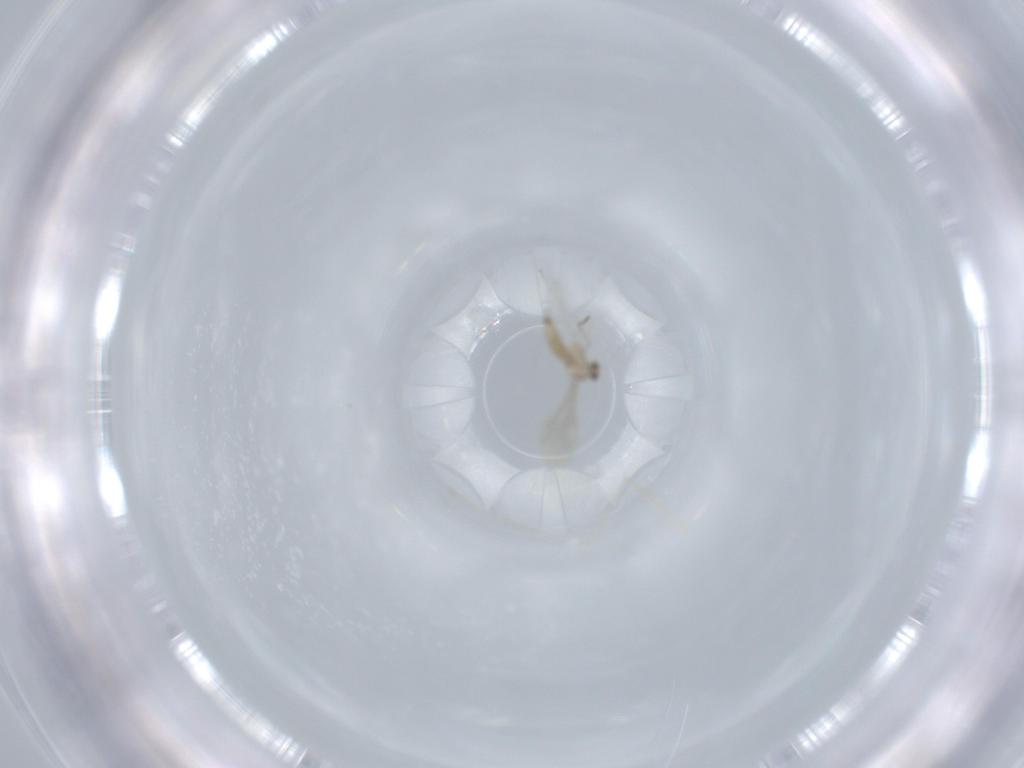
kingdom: Animalia
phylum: Arthropoda
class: Insecta
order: Diptera
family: Cecidomyiidae
